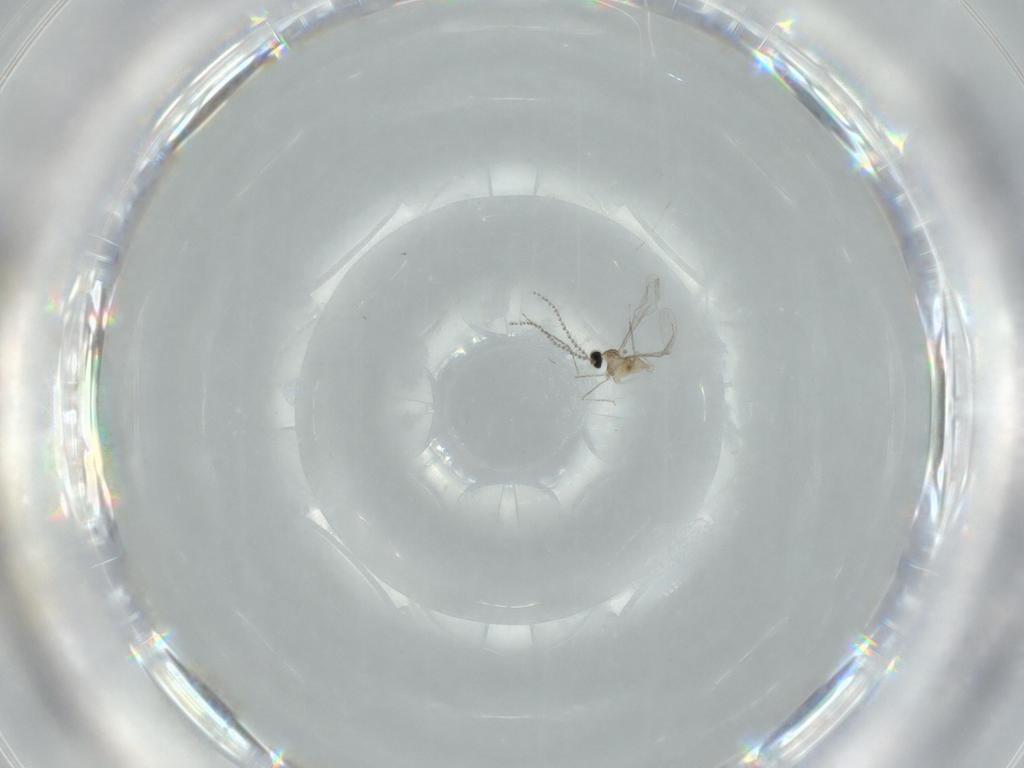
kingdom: Animalia
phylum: Arthropoda
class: Insecta
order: Diptera
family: Cecidomyiidae
